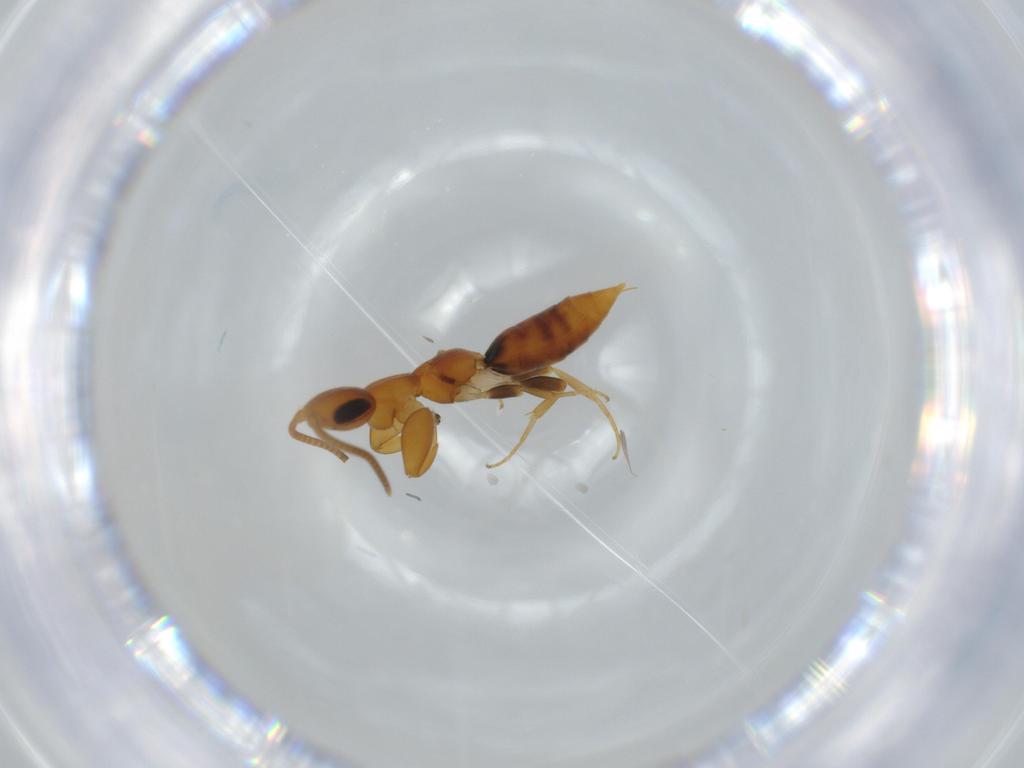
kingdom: Animalia
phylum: Arthropoda
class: Insecta
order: Hymenoptera
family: Sclerogibbidae
